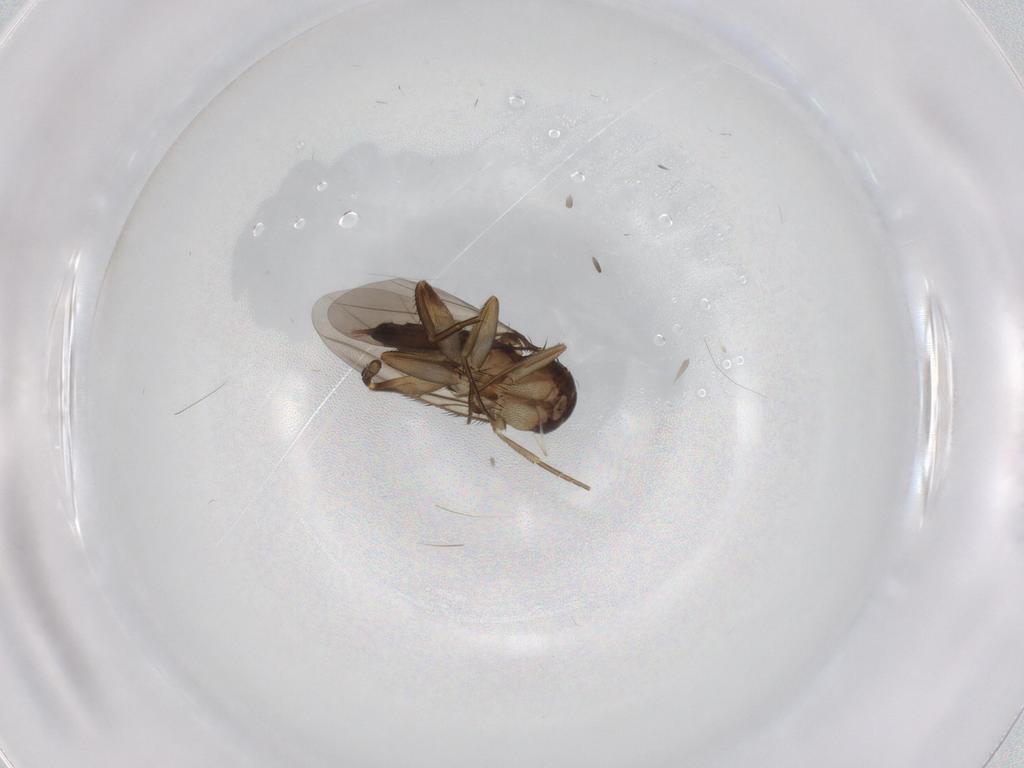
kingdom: Animalia
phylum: Arthropoda
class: Insecta
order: Diptera
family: Phoridae
